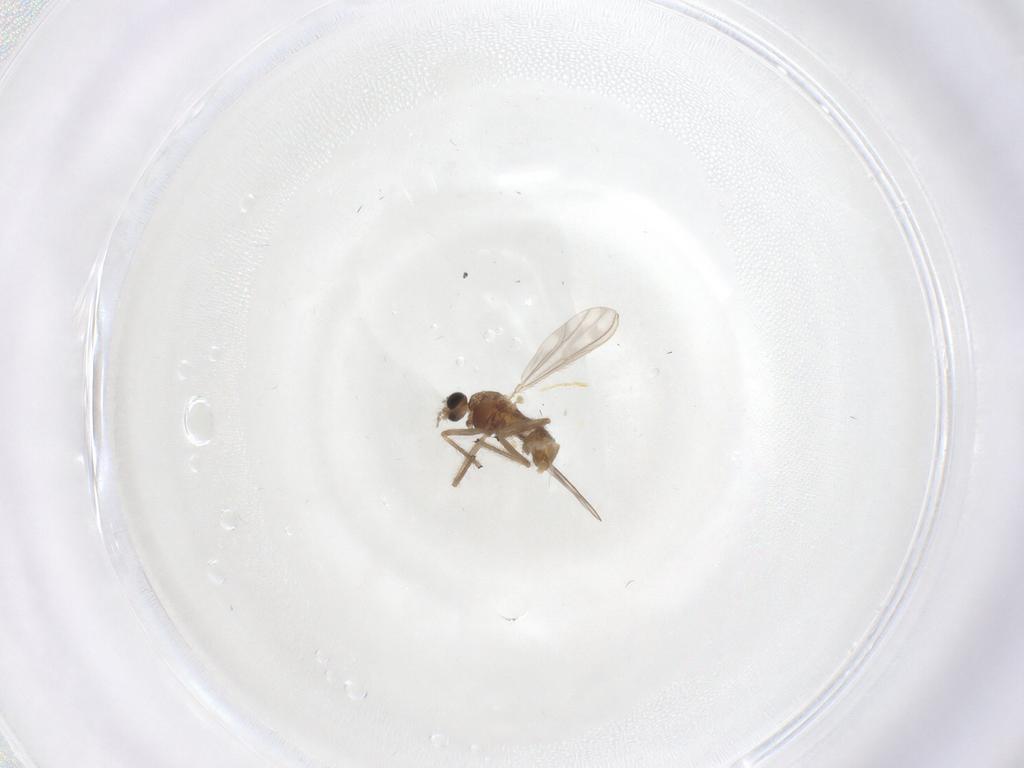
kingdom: Animalia
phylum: Arthropoda
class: Insecta
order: Diptera
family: Chironomidae
